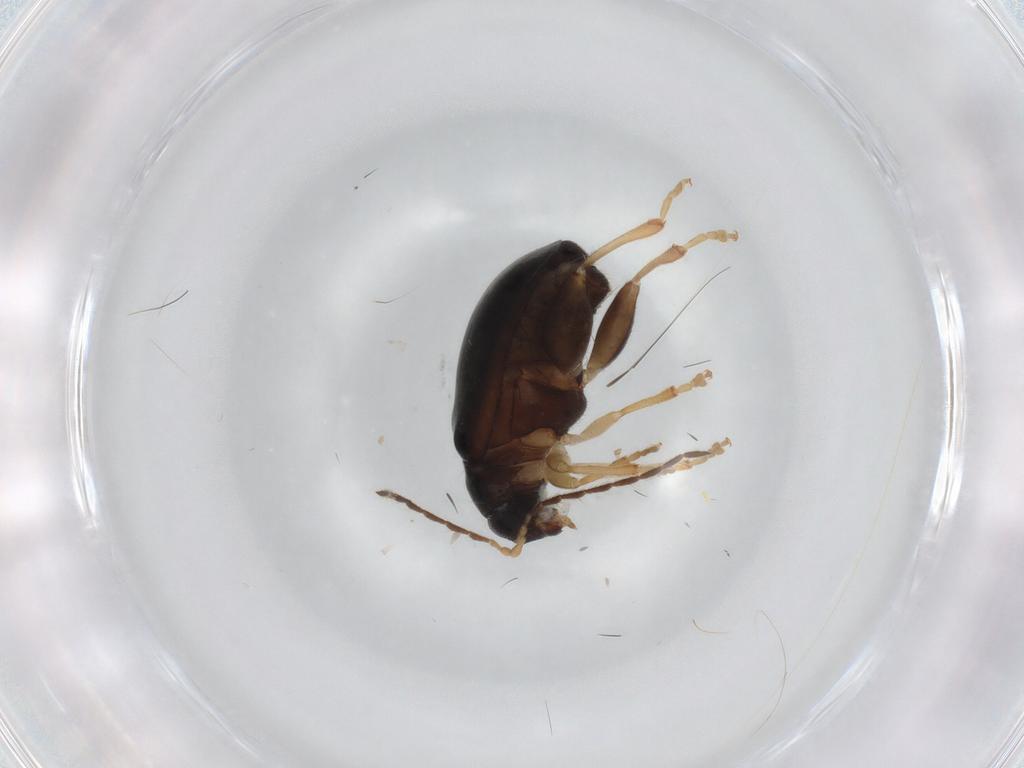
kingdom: Animalia
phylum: Arthropoda
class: Insecta
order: Coleoptera
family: Chrysomelidae
